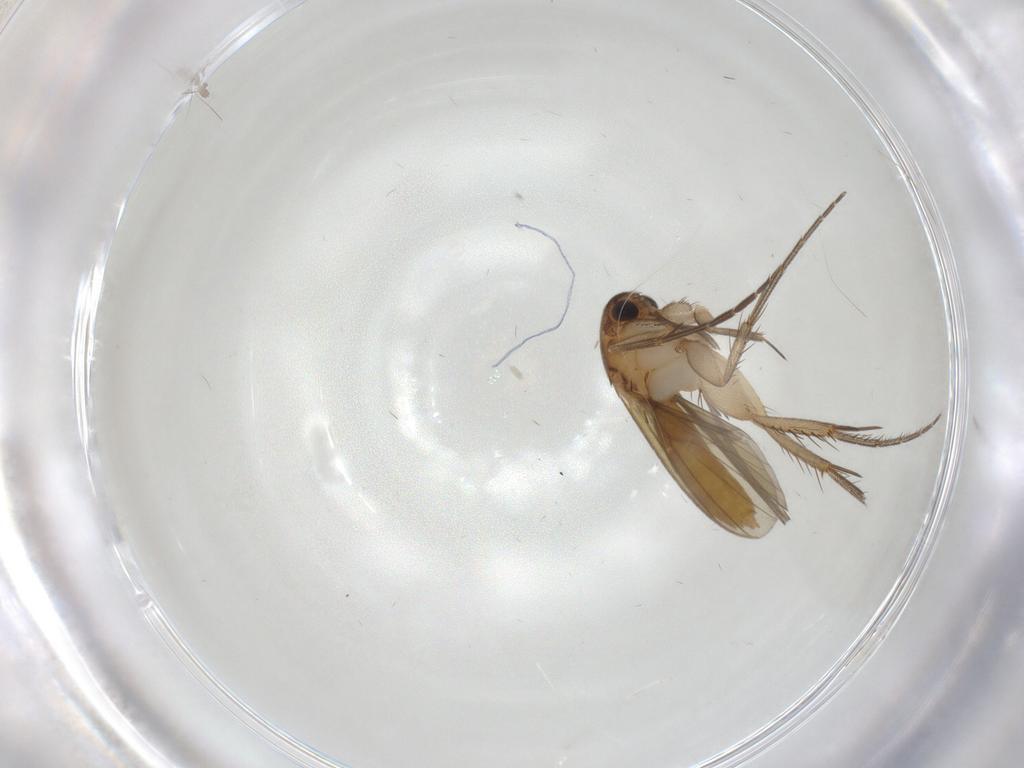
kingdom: Animalia
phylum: Arthropoda
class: Insecta
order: Diptera
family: Mycetophilidae
